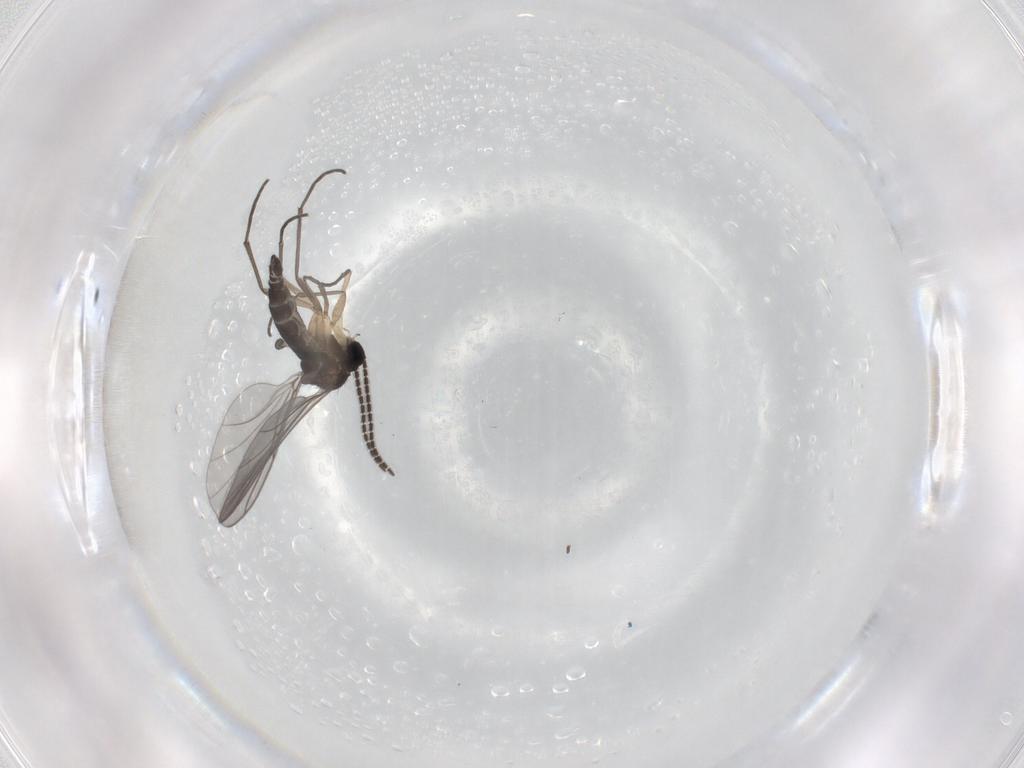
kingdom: Animalia
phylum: Arthropoda
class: Insecta
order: Diptera
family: Sciaridae
